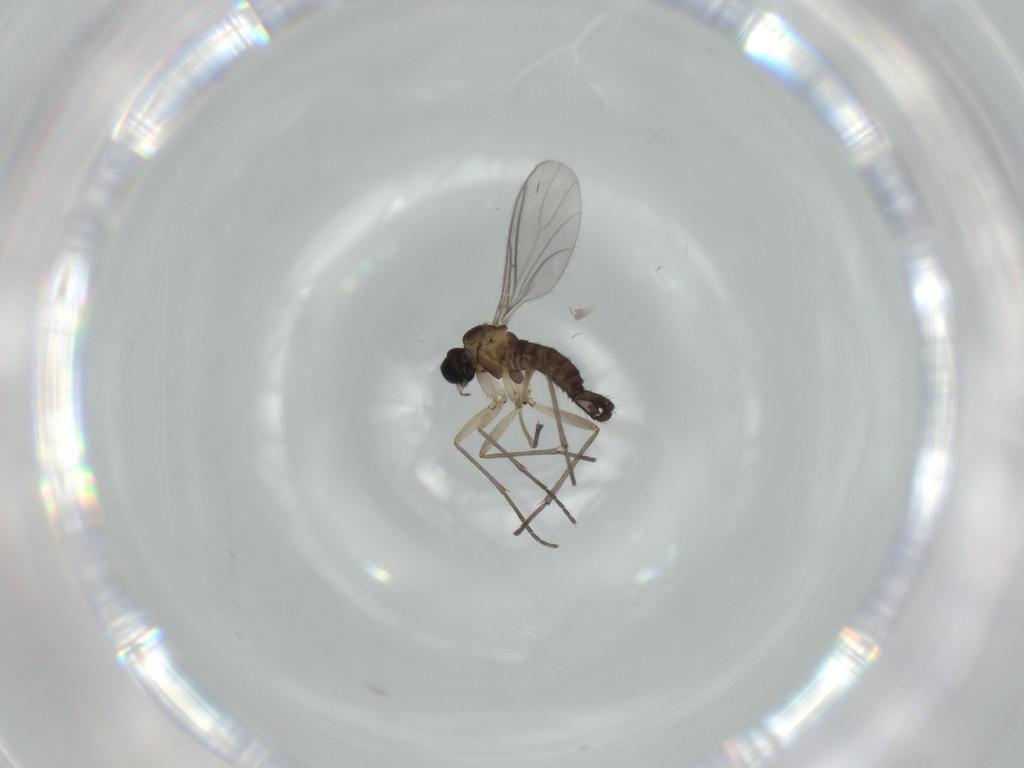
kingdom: Animalia
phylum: Arthropoda
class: Insecta
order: Diptera
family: Sciaridae
